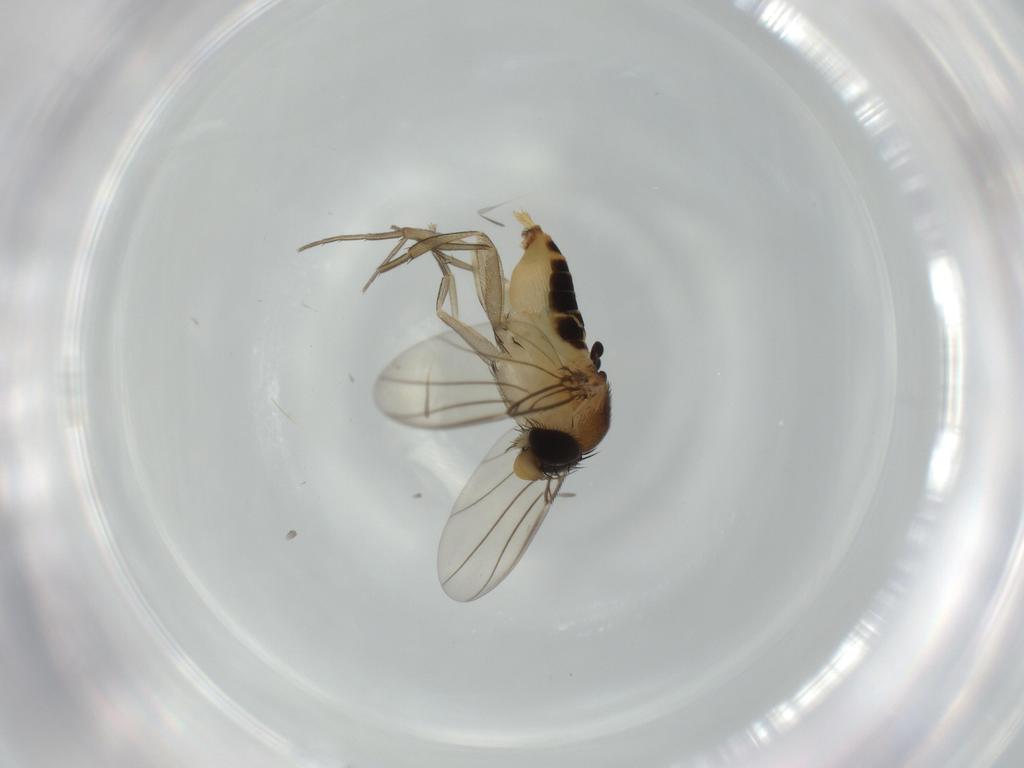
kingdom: Animalia
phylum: Arthropoda
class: Insecta
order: Diptera
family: Phoridae
